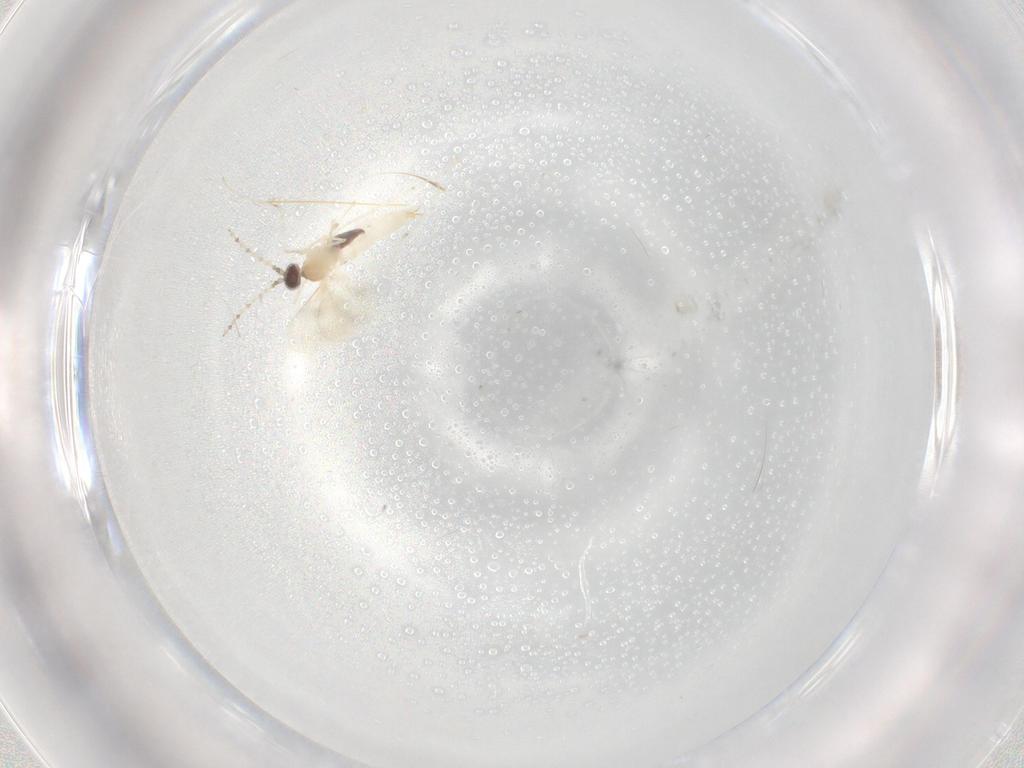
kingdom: Animalia
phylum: Arthropoda
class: Insecta
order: Diptera
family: Cecidomyiidae
